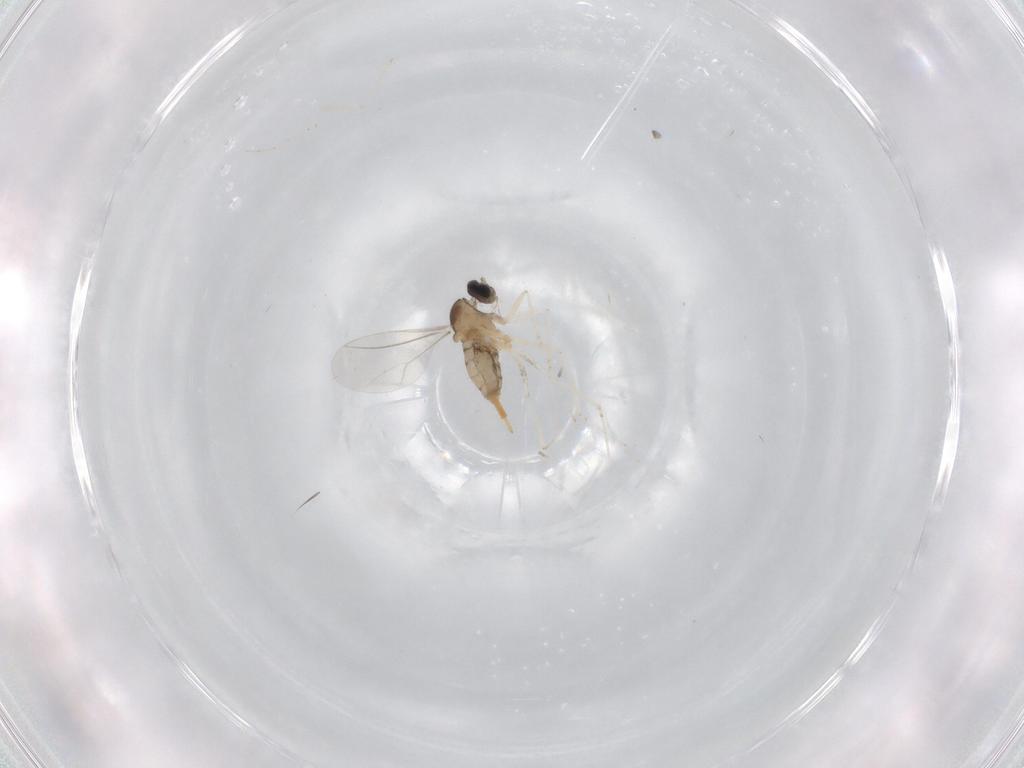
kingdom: Animalia
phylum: Arthropoda
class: Insecta
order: Diptera
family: Cecidomyiidae
